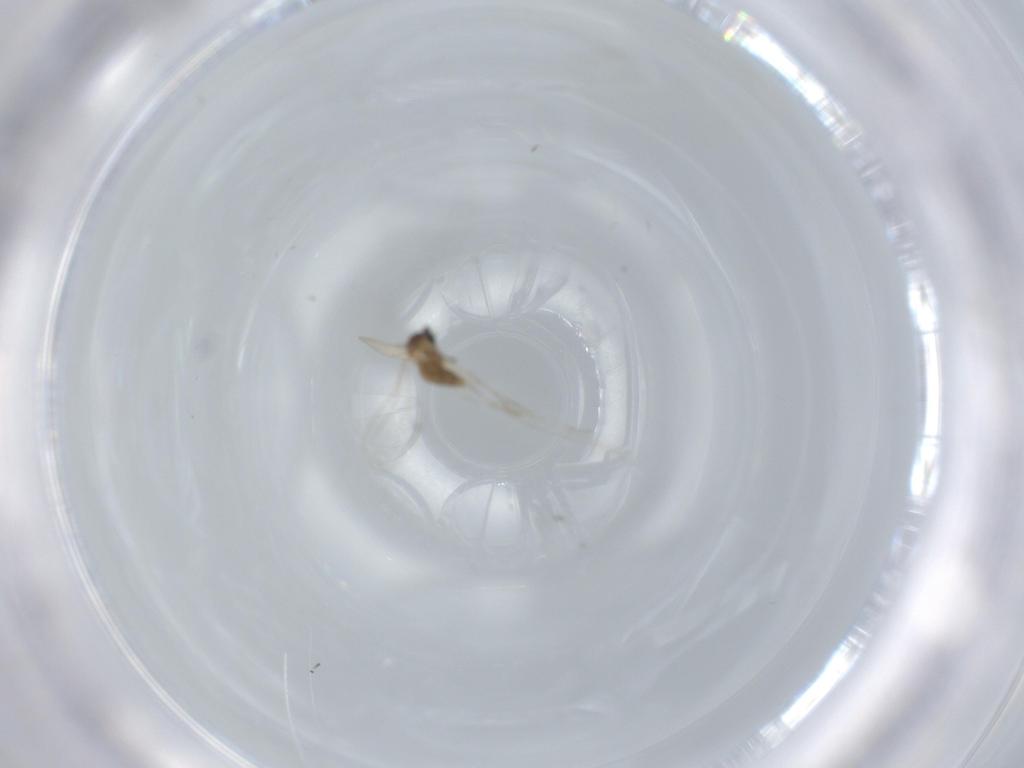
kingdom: Animalia
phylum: Arthropoda
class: Insecta
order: Diptera
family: Cecidomyiidae
